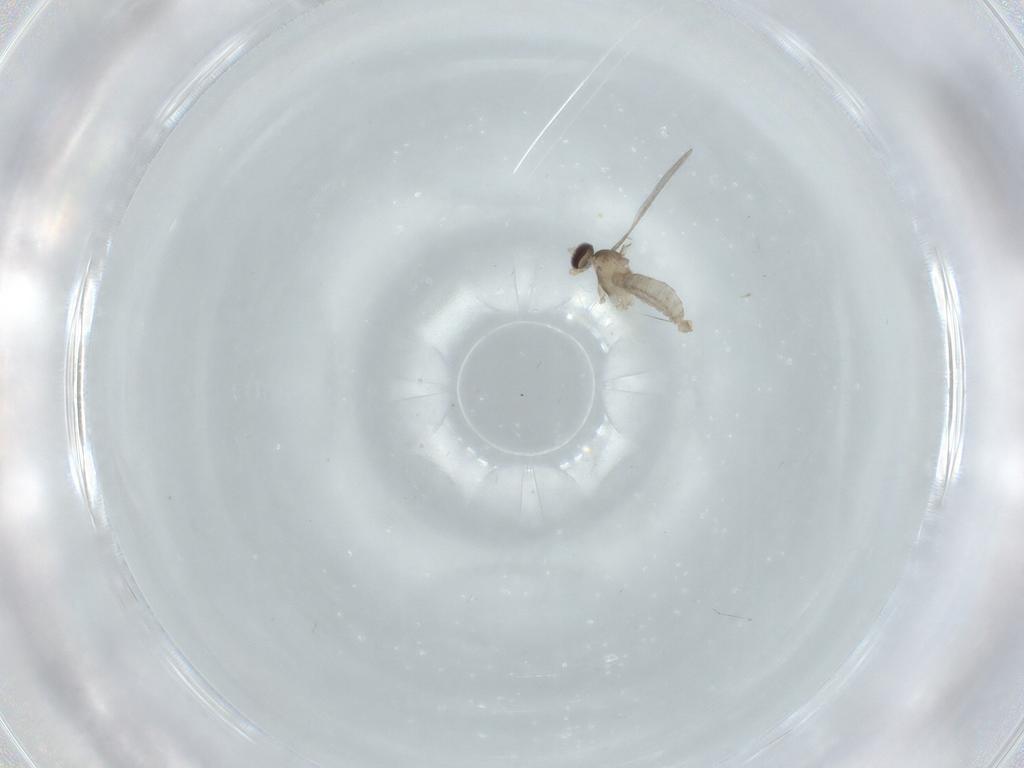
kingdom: Animalia
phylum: Arthropoda
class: Insecta
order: Diptera
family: Cecidomyiidae
